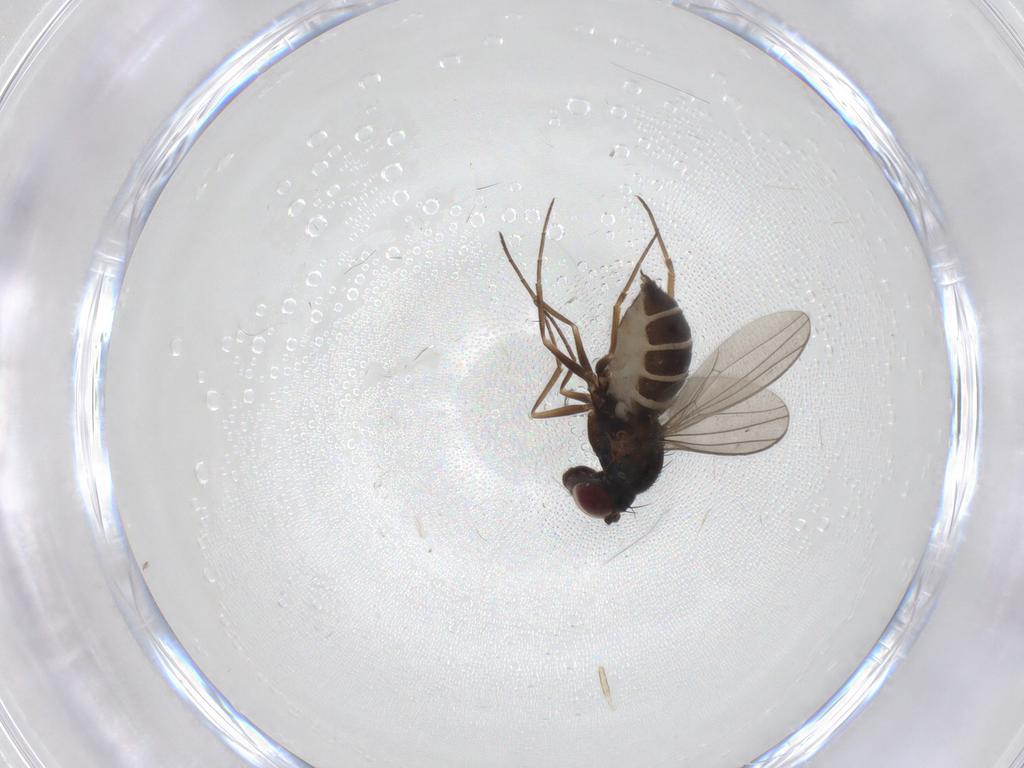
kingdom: Animalia
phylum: Arthropoda
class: Insecta
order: Diptera
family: Dolichopodidae
